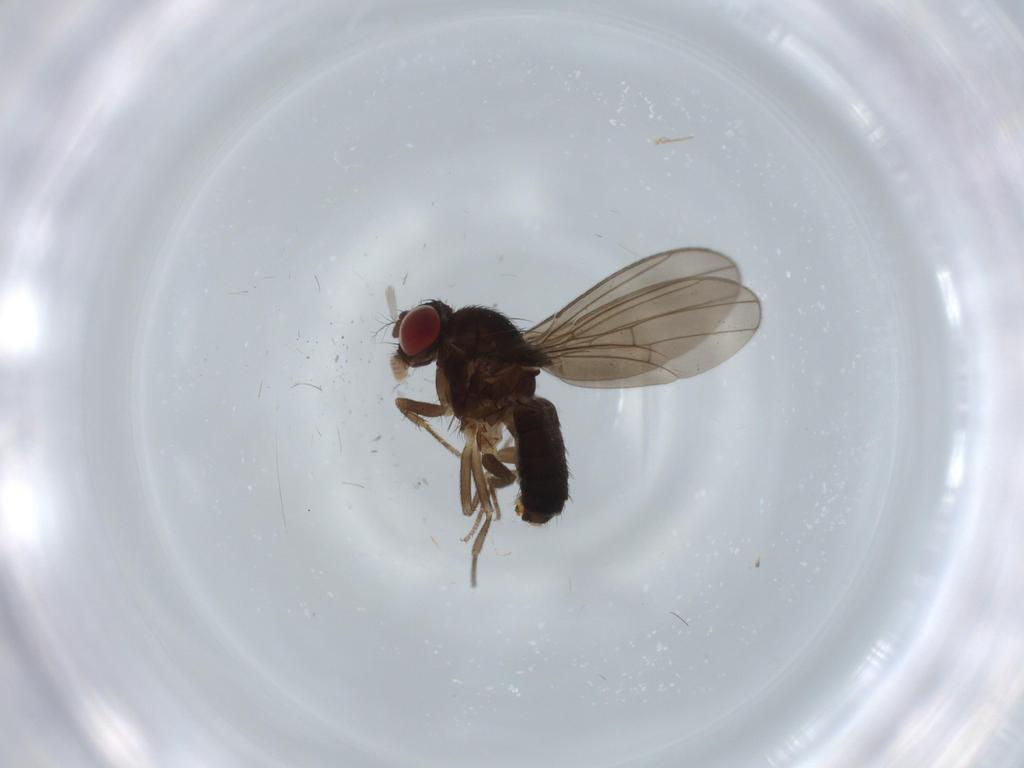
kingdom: Animalia
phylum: Arthropoda
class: Insecta
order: Diptera
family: Drosophilidae
